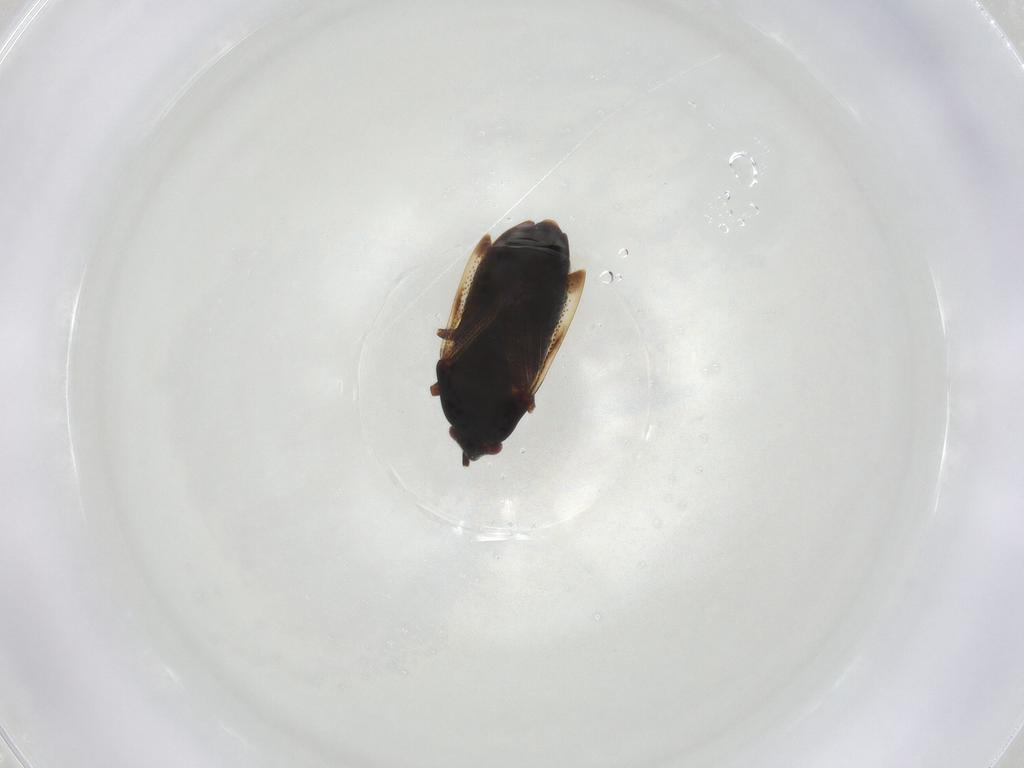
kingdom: Animalia
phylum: Arthropoda
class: Insecta
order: Hemiptera
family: Rhyparochromidae
